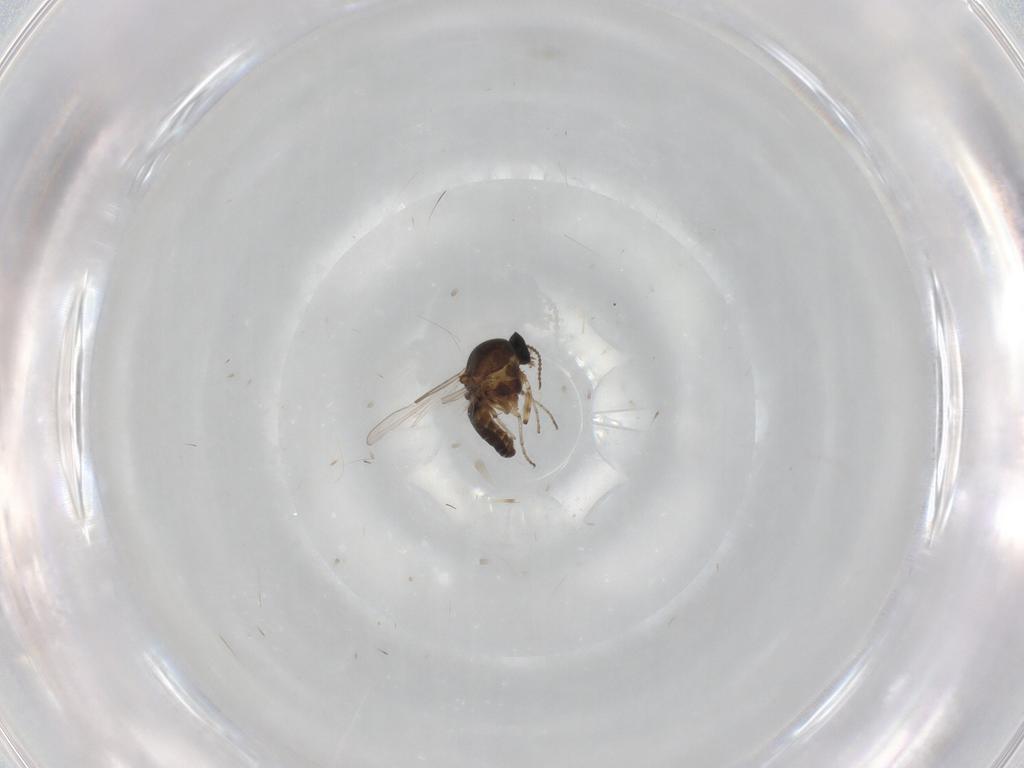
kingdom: Animalia
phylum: Arthropoda
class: Insecta
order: Diptera
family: Ceratopogonidae
